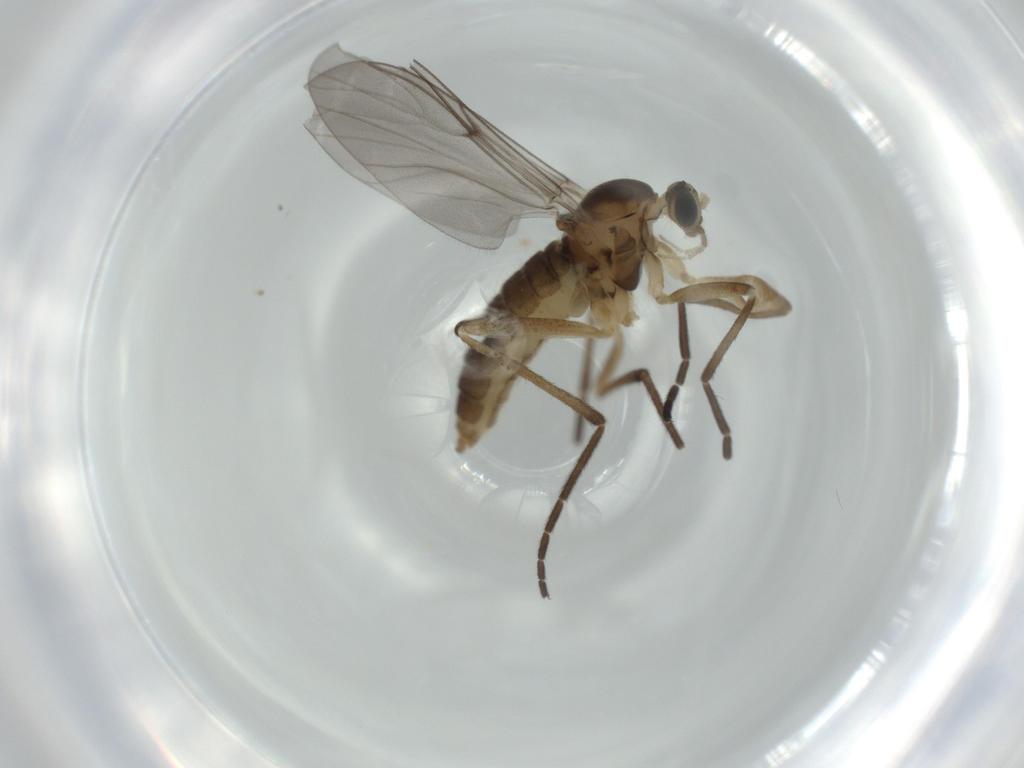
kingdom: Animalia
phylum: Arthropoda
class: Insecta
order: Diptera
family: Cecidomyiidae
